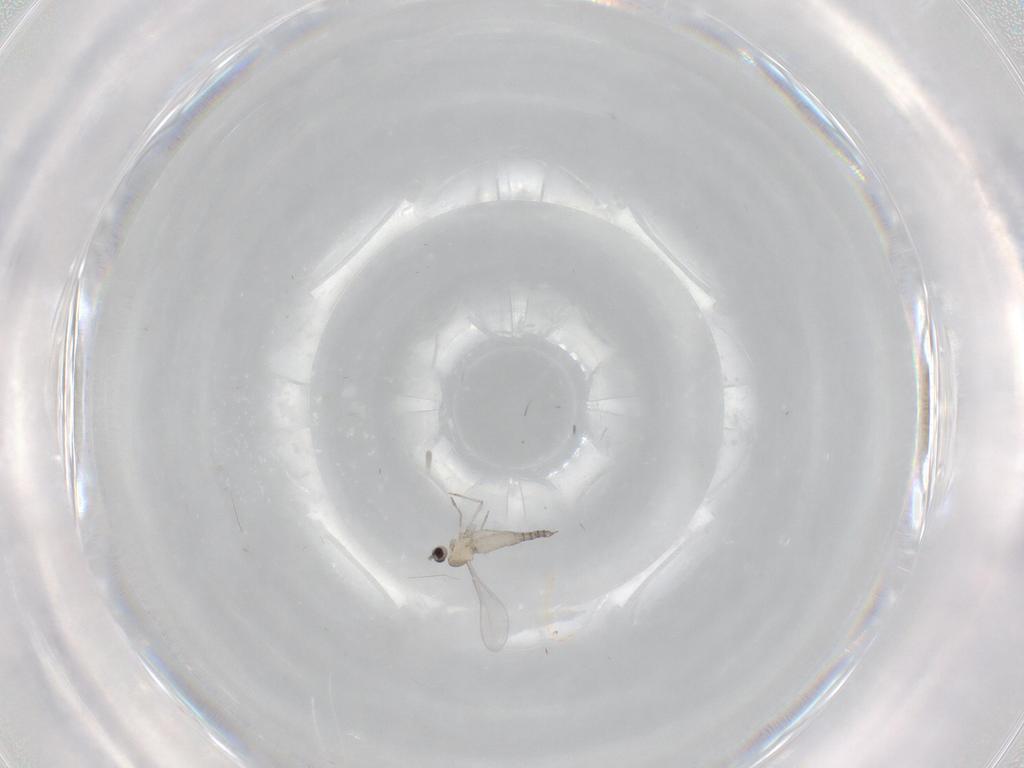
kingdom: Animalia
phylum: Arthropoda
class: Insecta
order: Diptera
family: Cecidomyiidae
